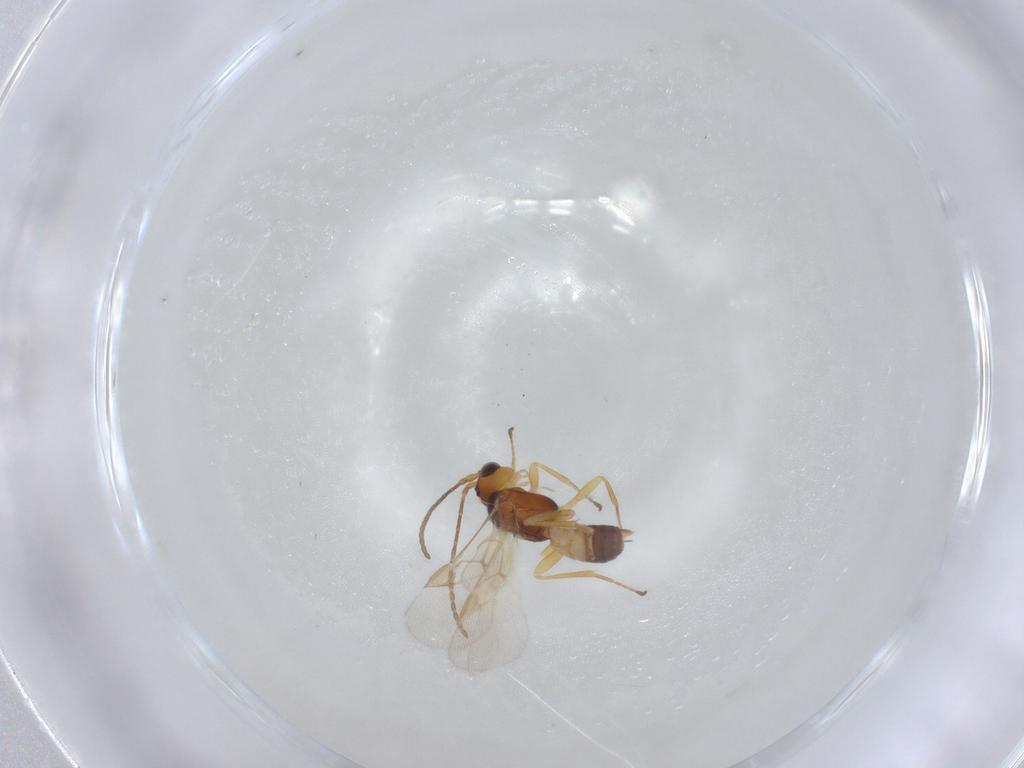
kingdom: Animalia
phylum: Arthropoda
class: Insecta
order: Hymenoptera
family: Braconidae
